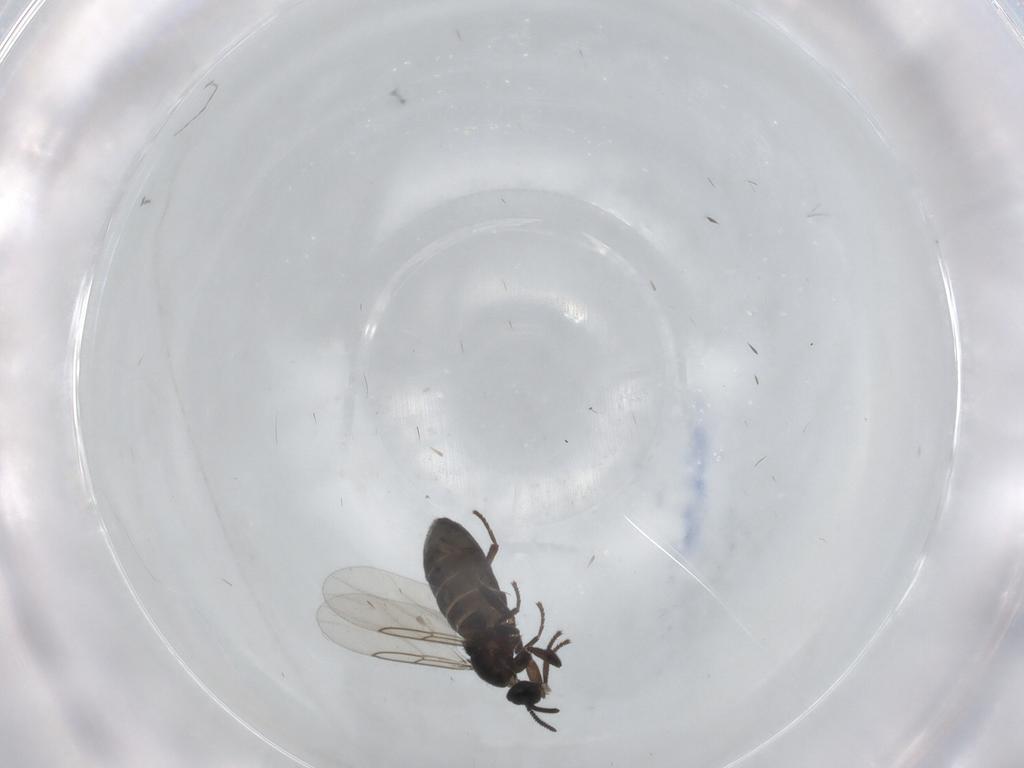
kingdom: Animalia
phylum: Arthropoda
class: Insecta
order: Diptera
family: Scatopsidae
